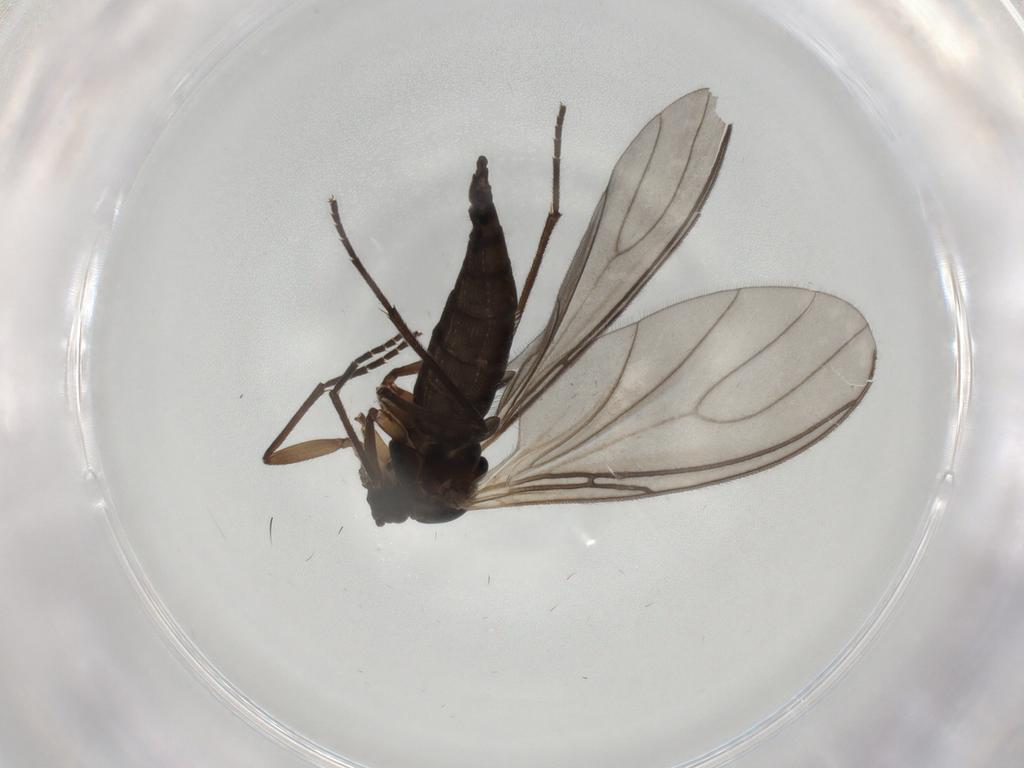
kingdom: Animalia
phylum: Arthropoda
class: Insecta
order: Diptera
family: Sciaridae
